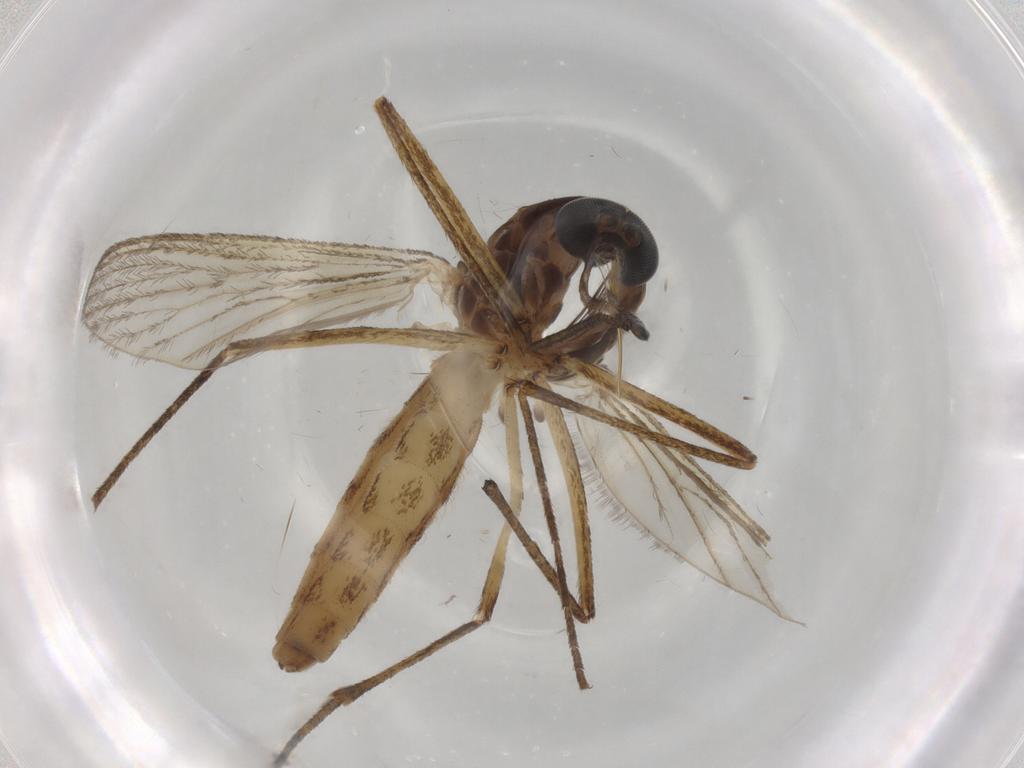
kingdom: Animalia
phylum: Arthropoda
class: Insecta
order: Diptera
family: Ephydridae
